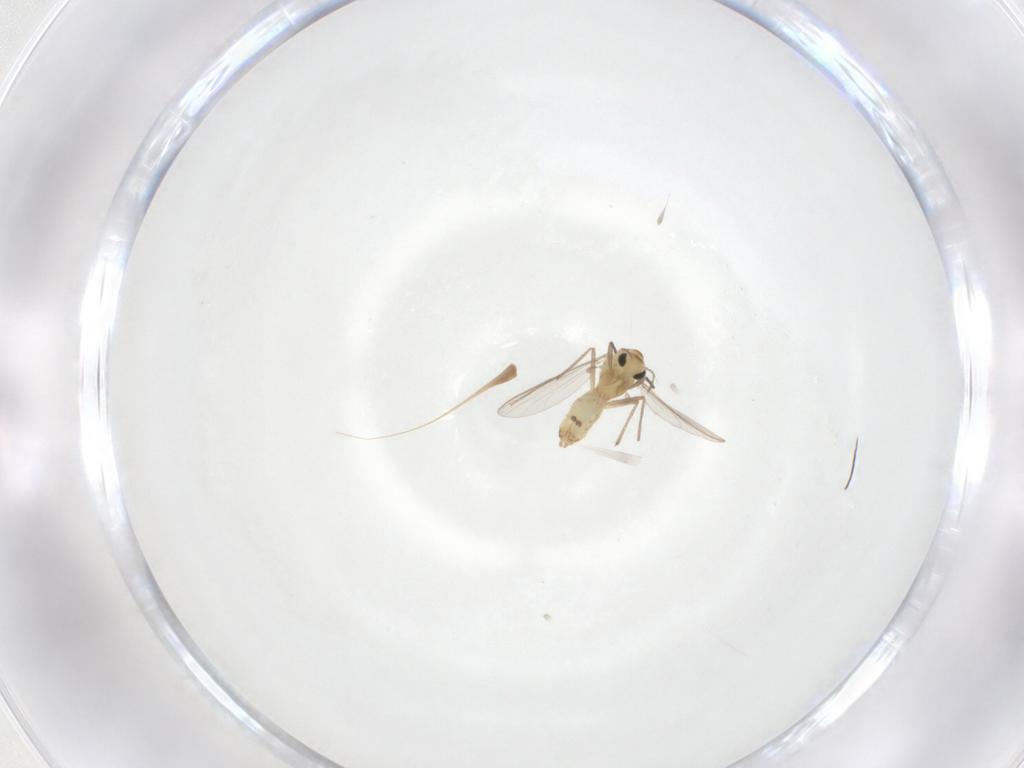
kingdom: Animalia
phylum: Arthropoda
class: Insecta
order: Diptera
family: Chironomidae
